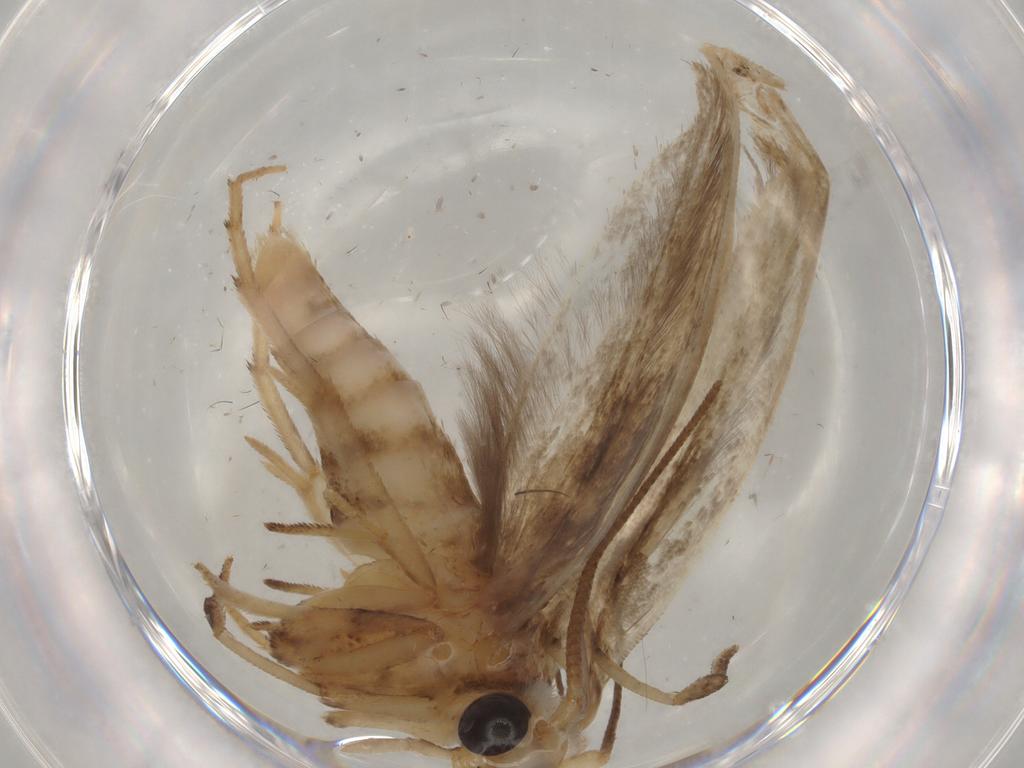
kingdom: Animalia
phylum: Arthropoda
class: Insecta
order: Lepidoptera
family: Yponomeutidae
